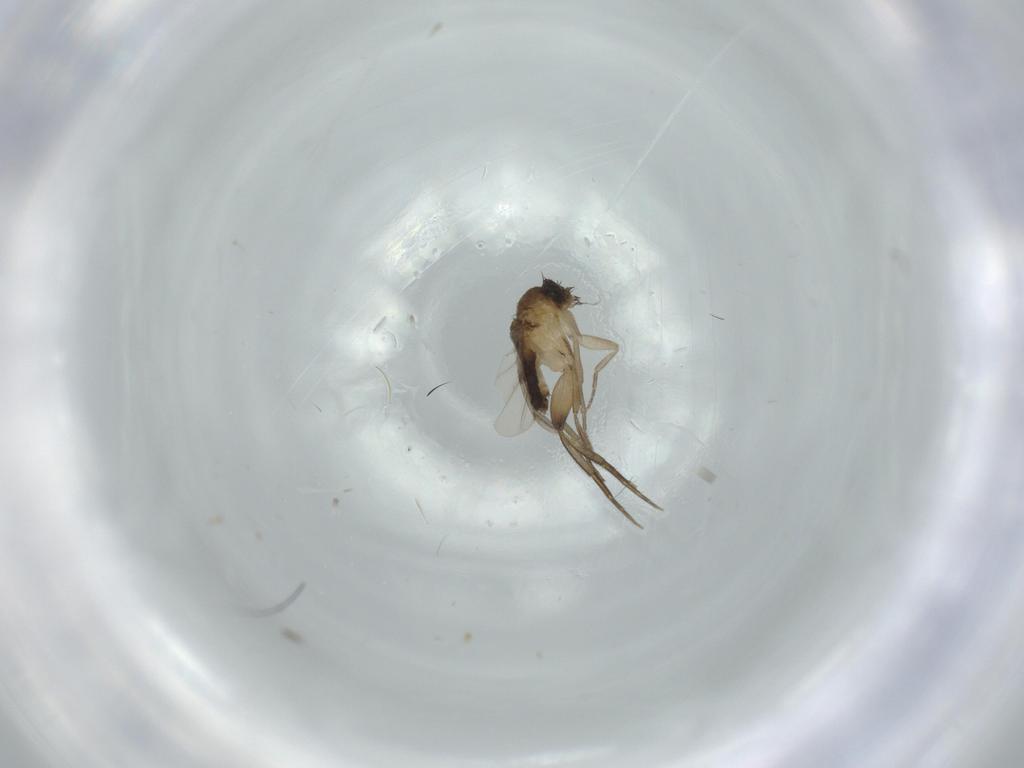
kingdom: Animalia
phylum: Arthropoda
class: Insecta
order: Diptera
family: Phoridae
